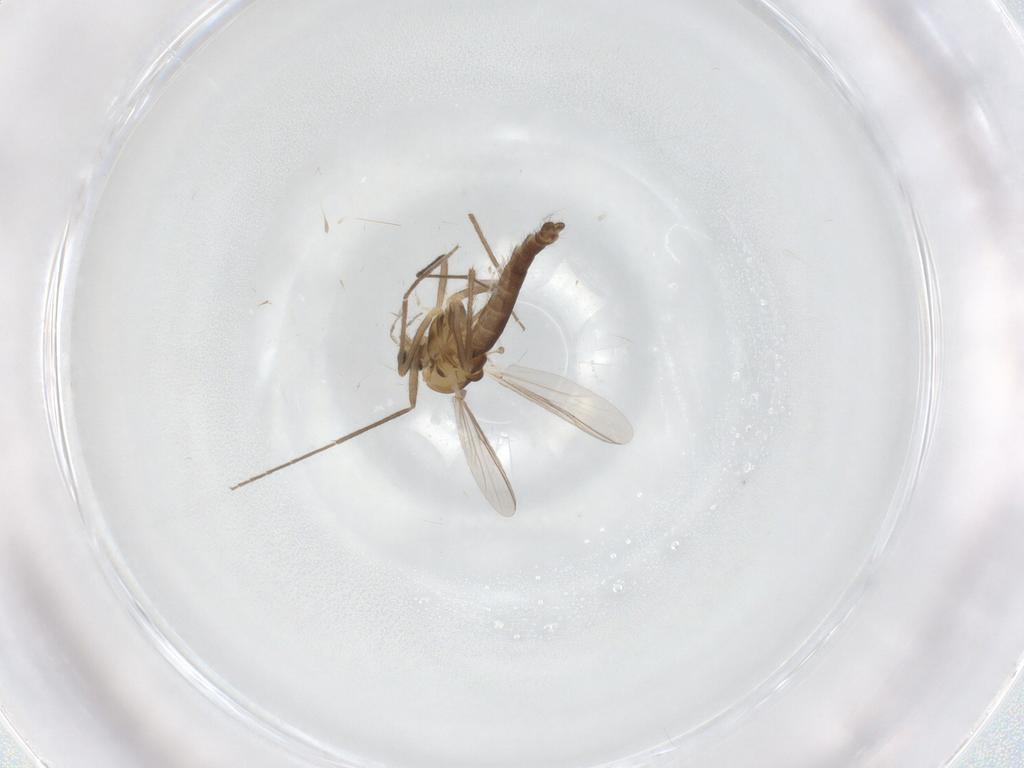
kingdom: Animalia
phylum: Arthropoda
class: Insecta
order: Diptera
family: Chironomidae
